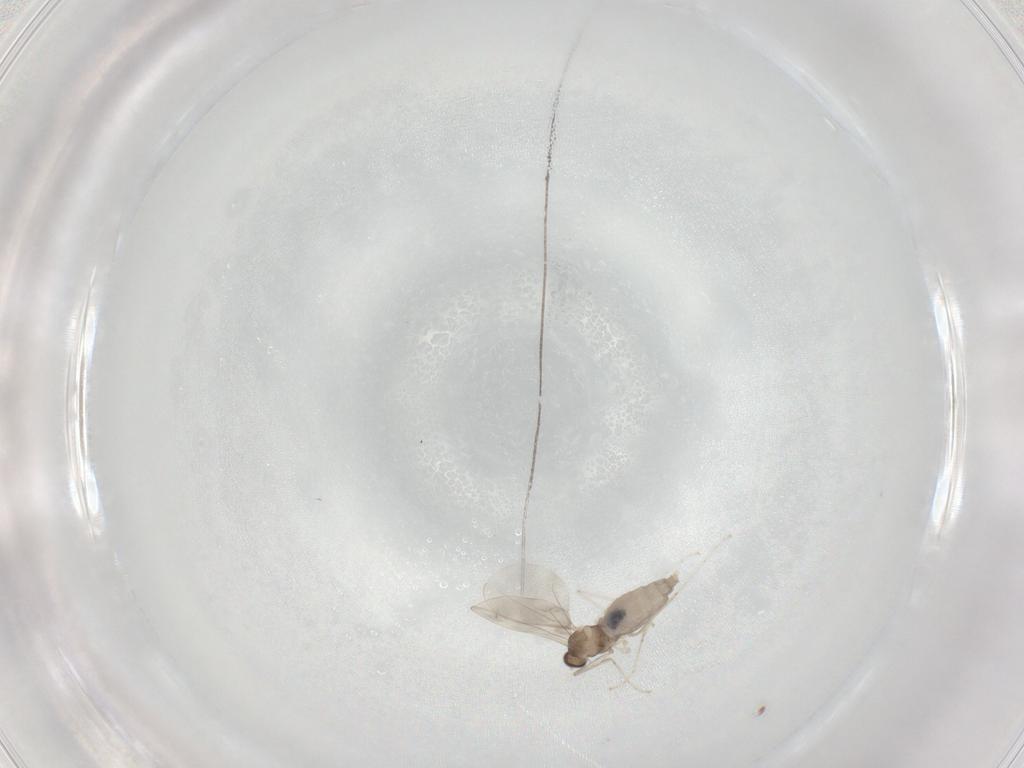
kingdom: Animalia
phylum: Arthropoda
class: Insecta
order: Diptera
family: Cecidomyiidae
